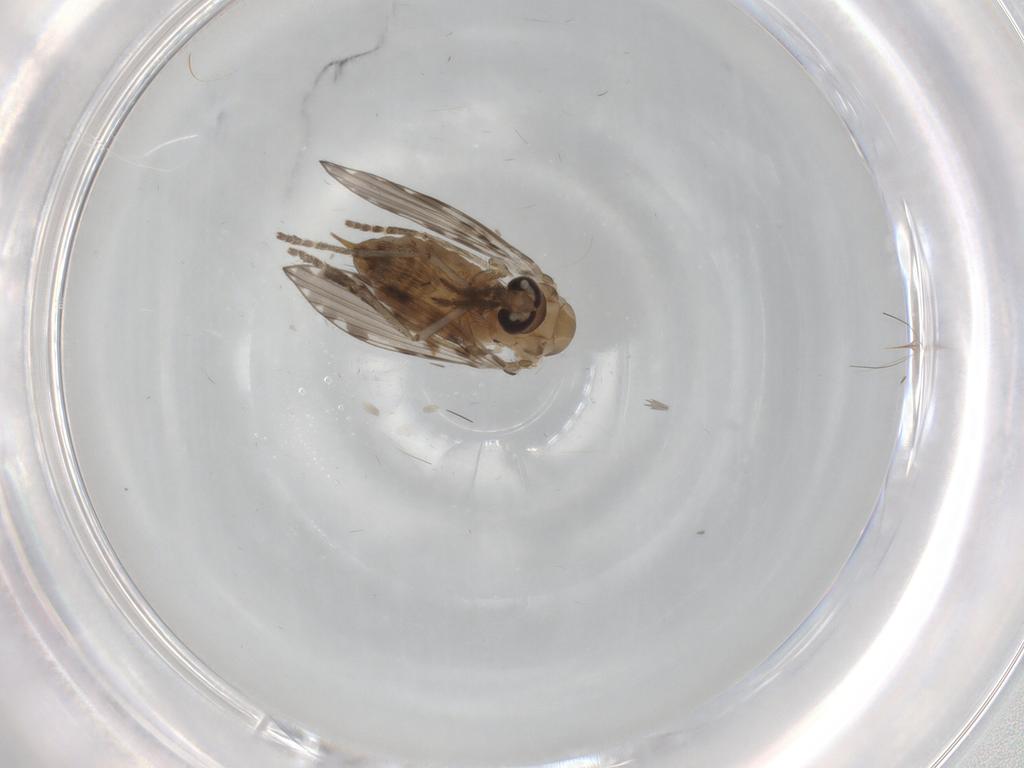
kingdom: Animalia
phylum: Arthropoda
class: Insecta
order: Diptera
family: Psychodidae
